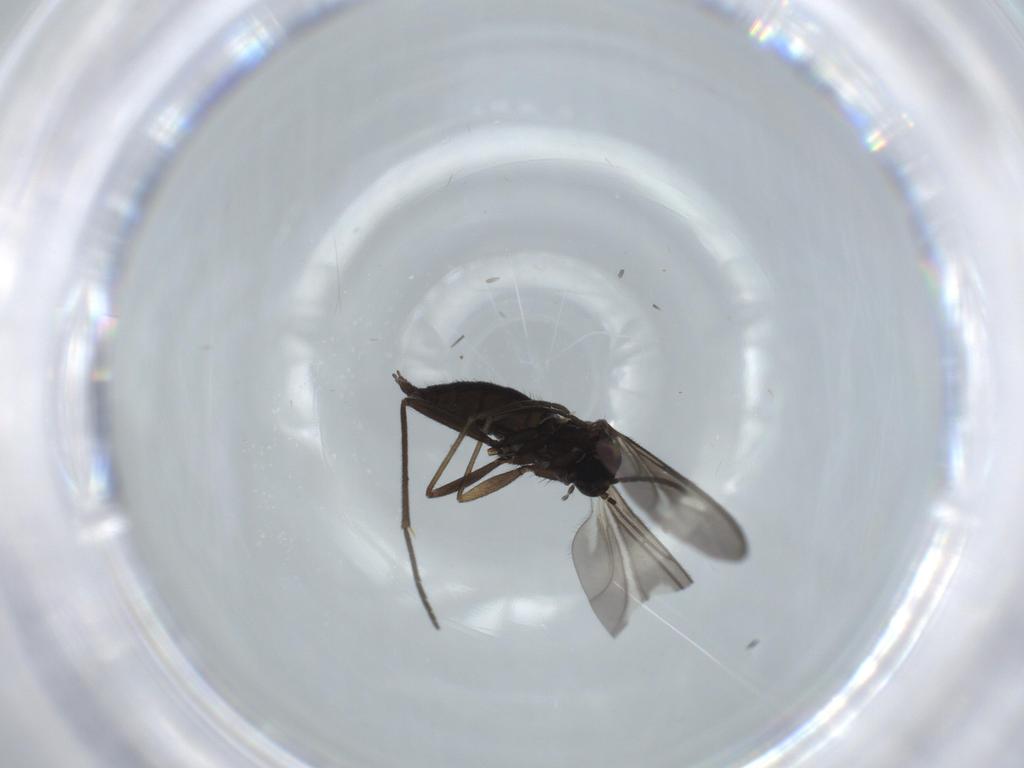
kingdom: Animalia
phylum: Arthropoda
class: Insecta
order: Diptera
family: Sciaridae
